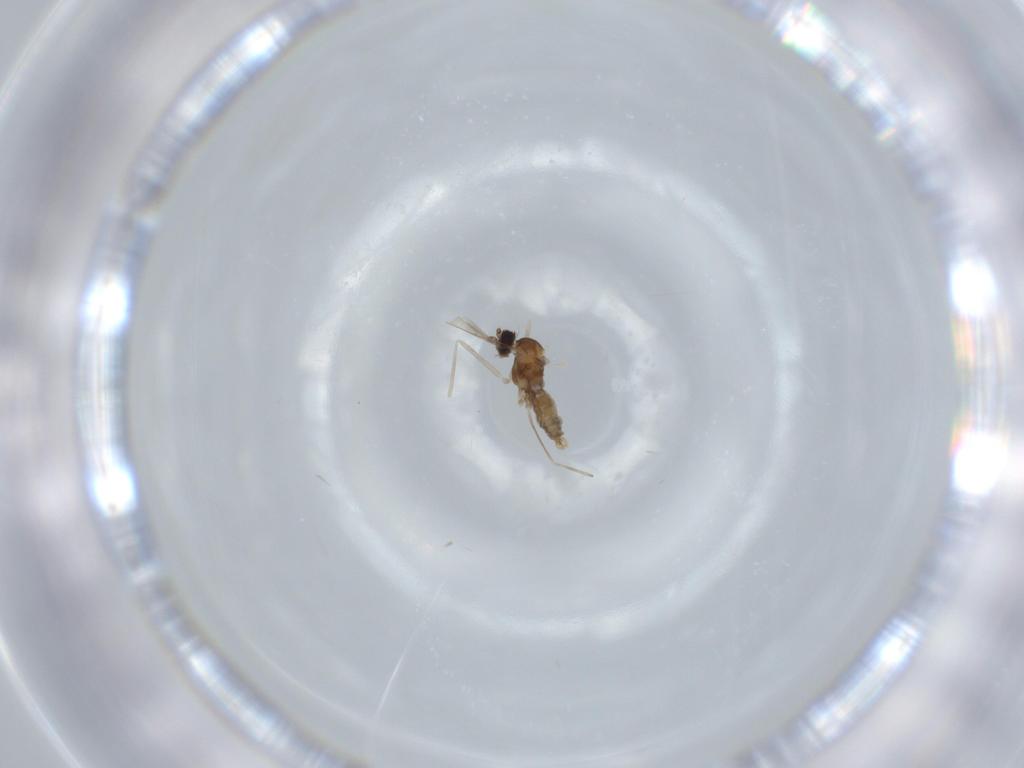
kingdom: Animalia
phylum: Arthropoda
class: Insecta
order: Diptera
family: Cecidomyiidae
